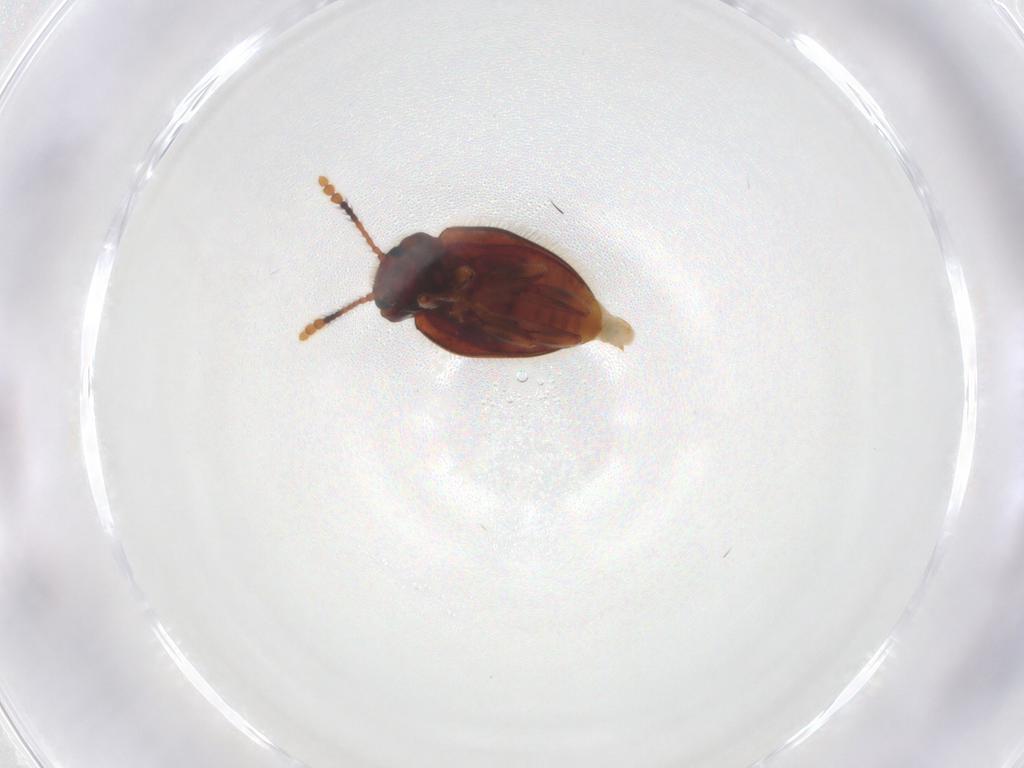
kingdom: Animalia
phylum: Arthropoda
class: Insecta
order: Coleoptera
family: Erotylidae
